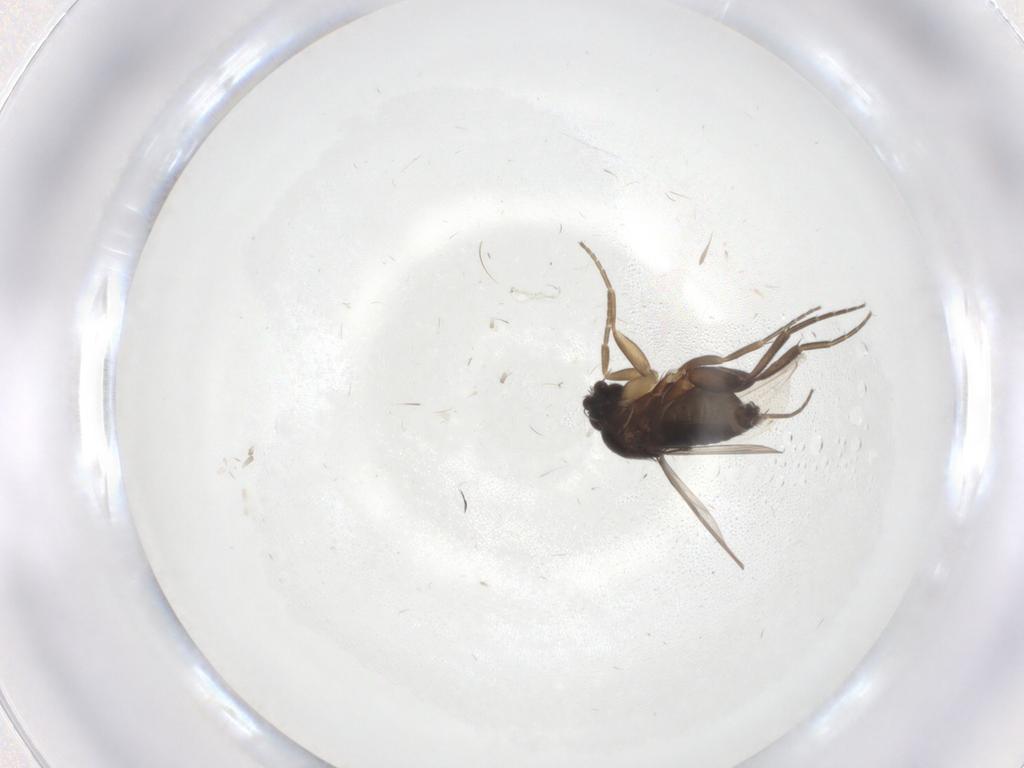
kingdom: Animalia
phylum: Arthropoda
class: Insecta
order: Diptera
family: Phoridae
